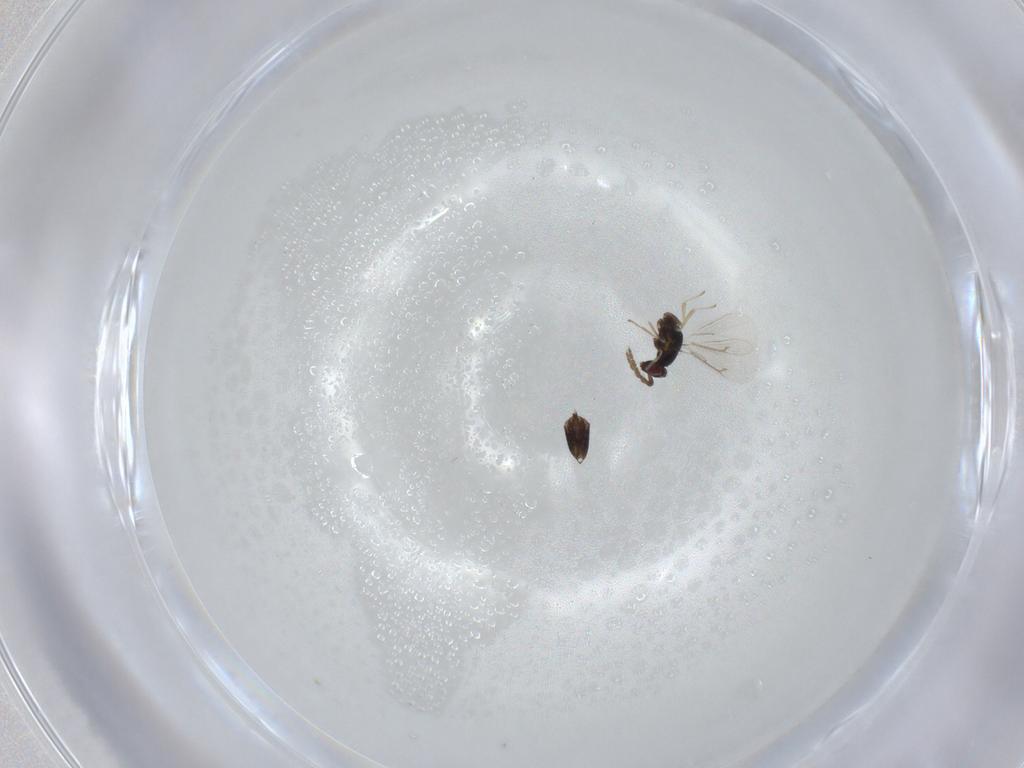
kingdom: Animalia
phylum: Arthropoda
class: Insecta
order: Hymenoptera
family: Eulophidae
